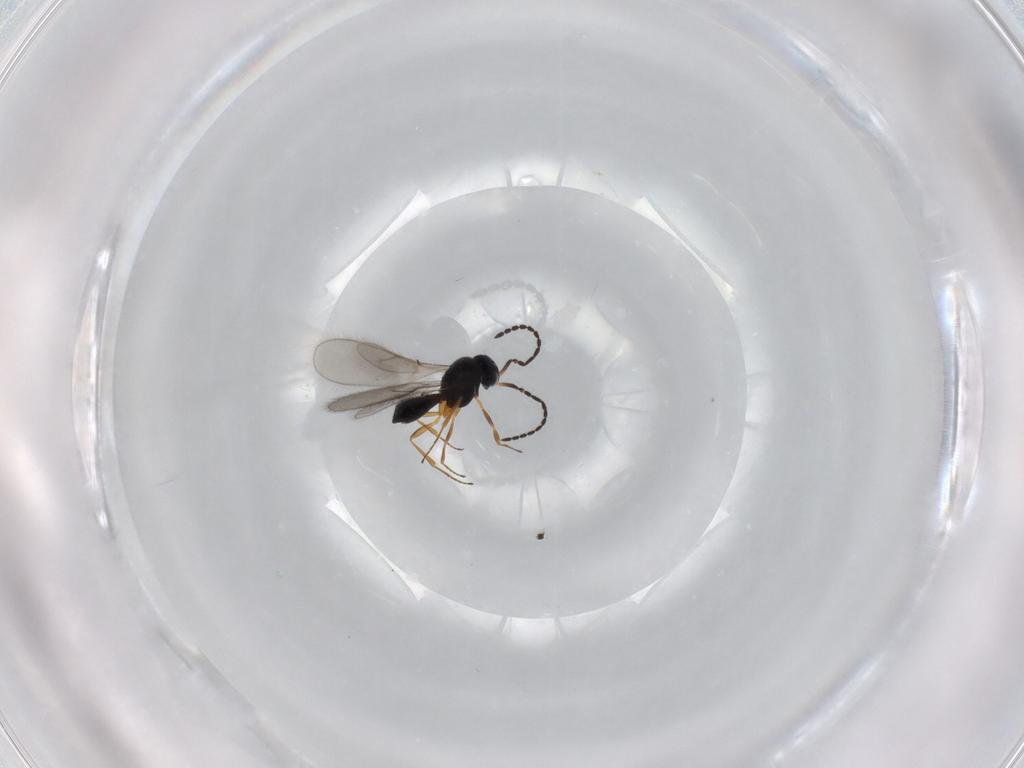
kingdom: Animalia
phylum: Arthropoda
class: Insecta
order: Hymenoptera
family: Scelionidae
